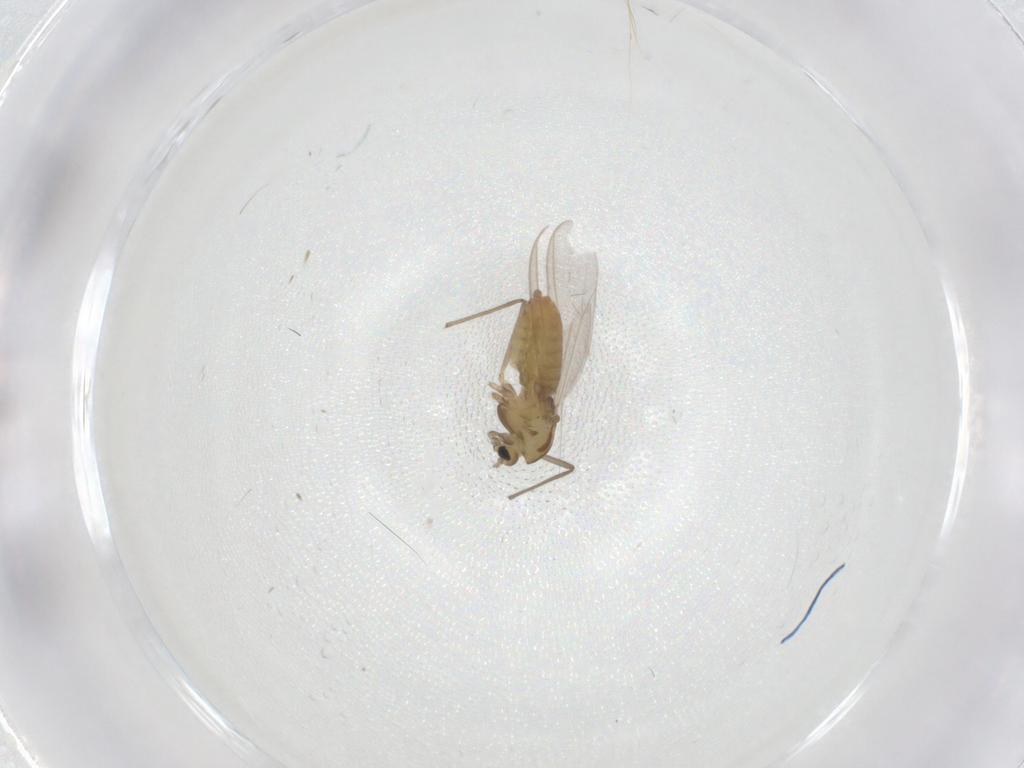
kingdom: Animalia
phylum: Arthropoda
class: Insecta
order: Diptera
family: Chironomidae
